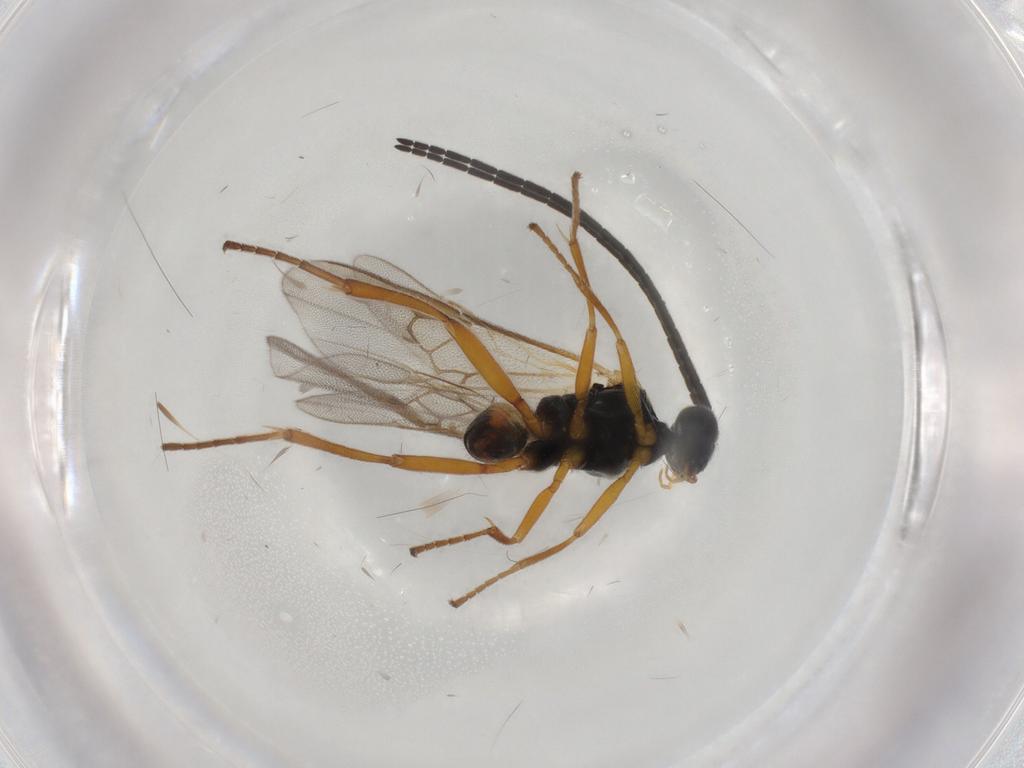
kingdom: Animalia
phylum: Arthropoda
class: Insecta
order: Hymenoptera
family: Braconidae
